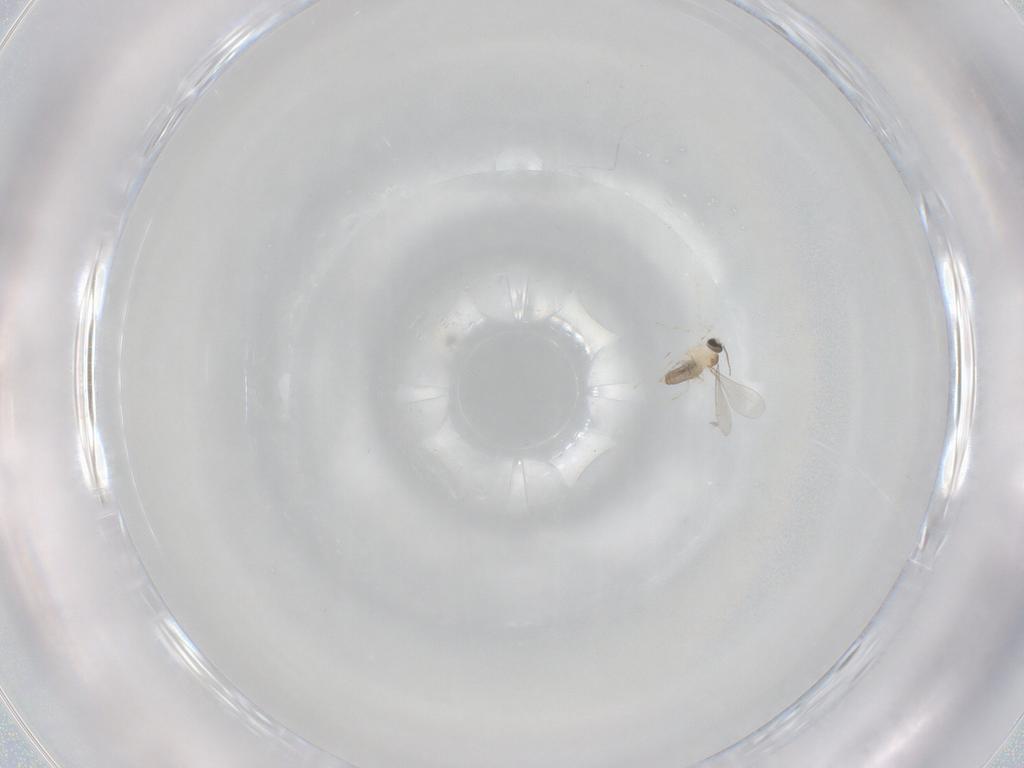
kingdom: Animalia
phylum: Arthropoda
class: Insecta
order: Diptera
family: Cecidomyiidae
